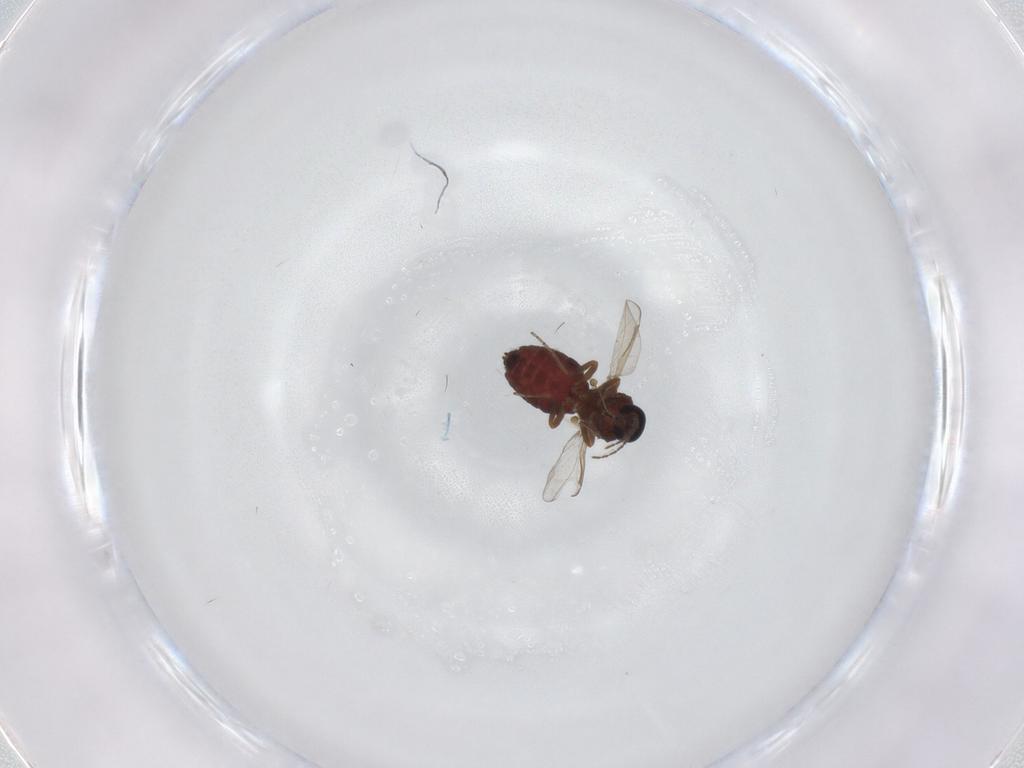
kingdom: Animalia
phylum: Arthropoda
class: Insecta
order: Diptera
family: Ceratopogonidae
